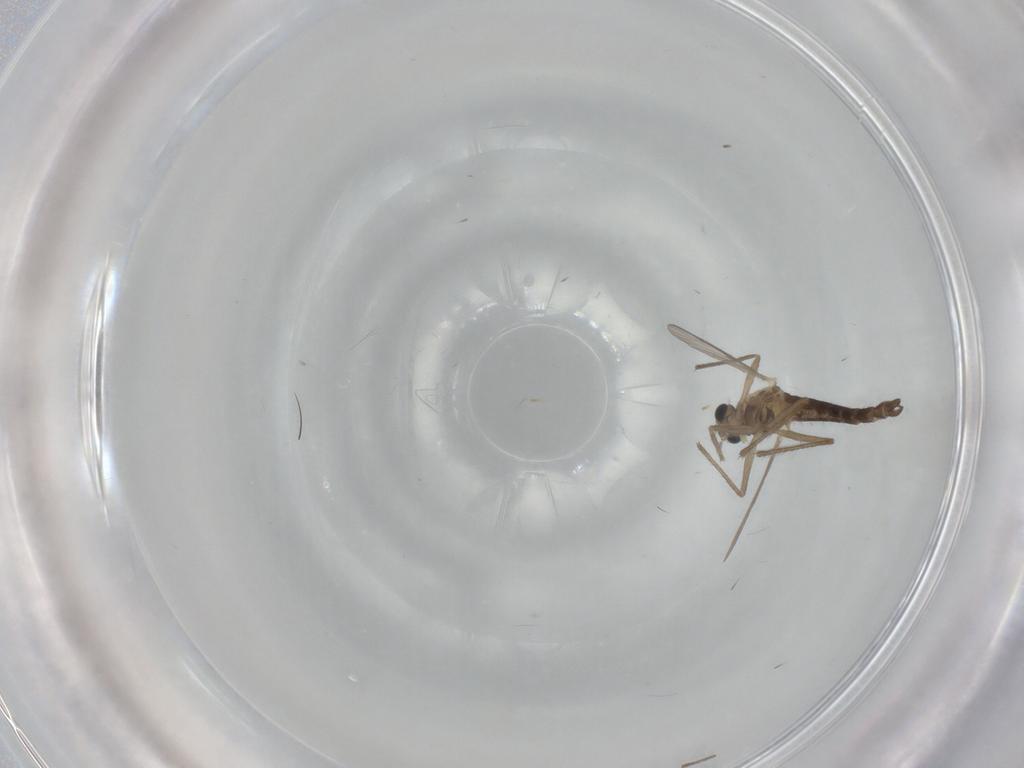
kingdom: Animalia
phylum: Arthropoda
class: Insecta
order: Diptera
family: Chironomidae
